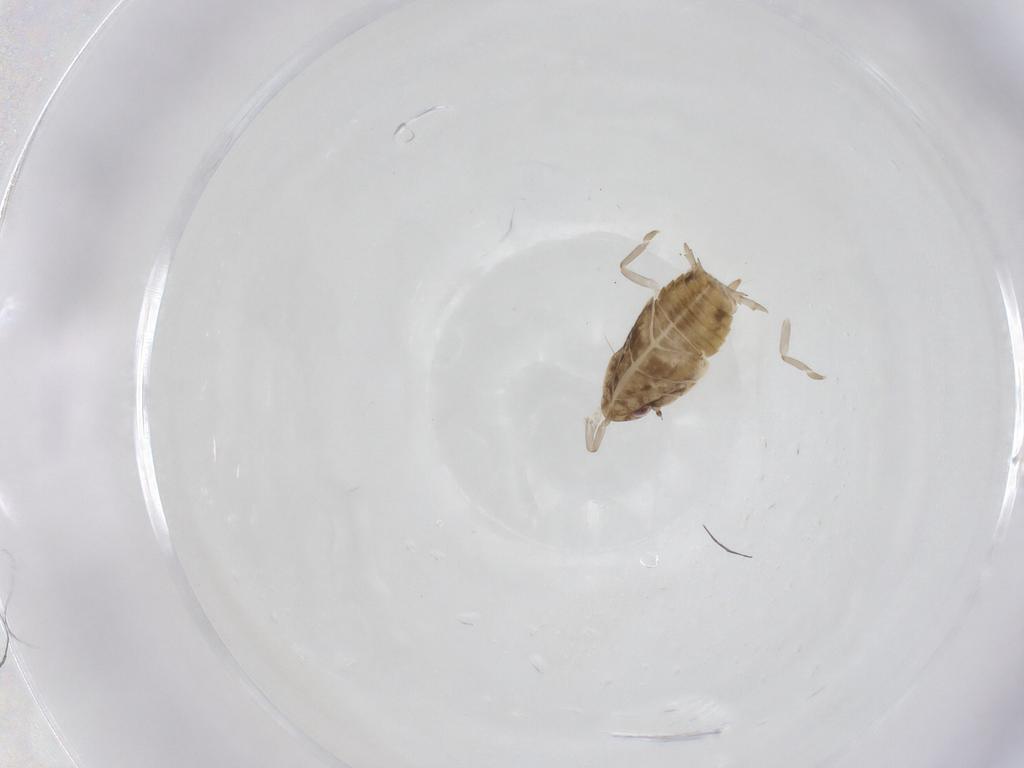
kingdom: Animalia
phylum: Arthropoda
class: Insecta
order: Hemiptera
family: Flatidae
